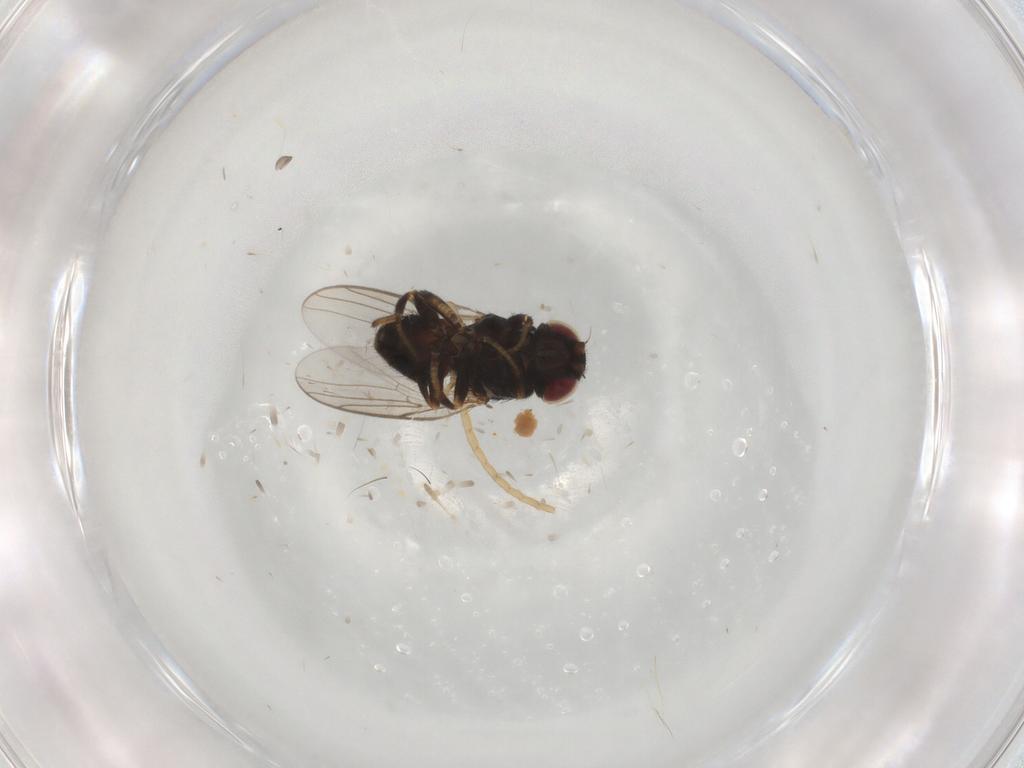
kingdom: Animalia
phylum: Arthropoda
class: Insecta
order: Diptera
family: Chloropidae
